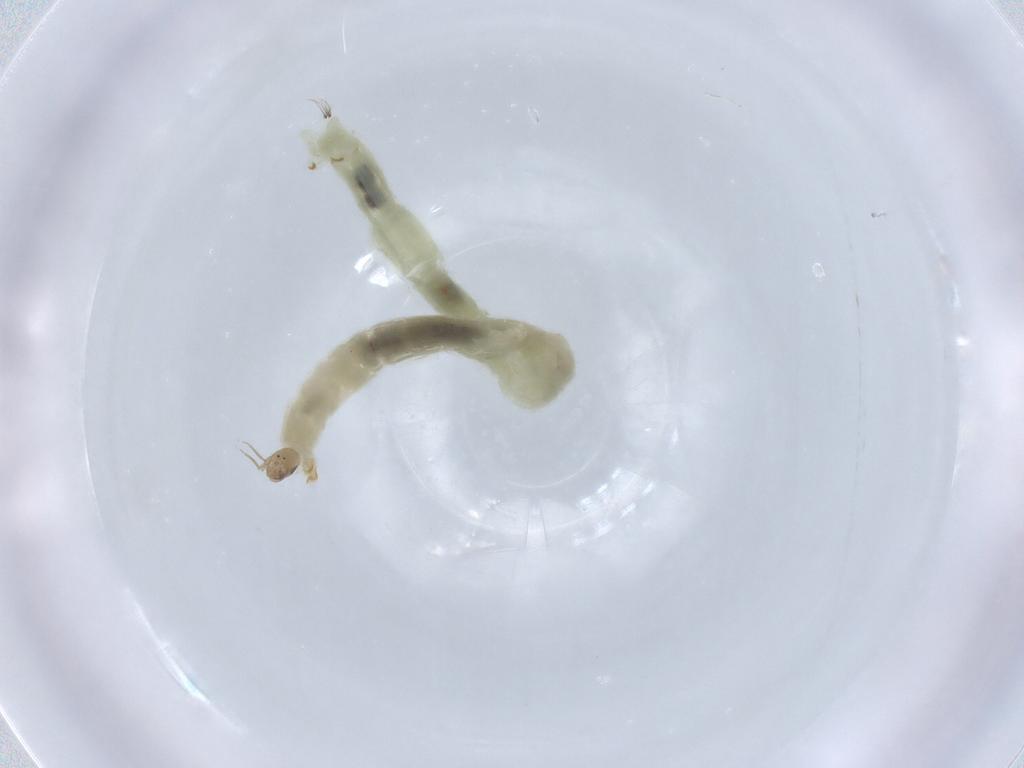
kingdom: Animalia
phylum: Arthropoda
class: Insecta
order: Diptera
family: Chironomidae
